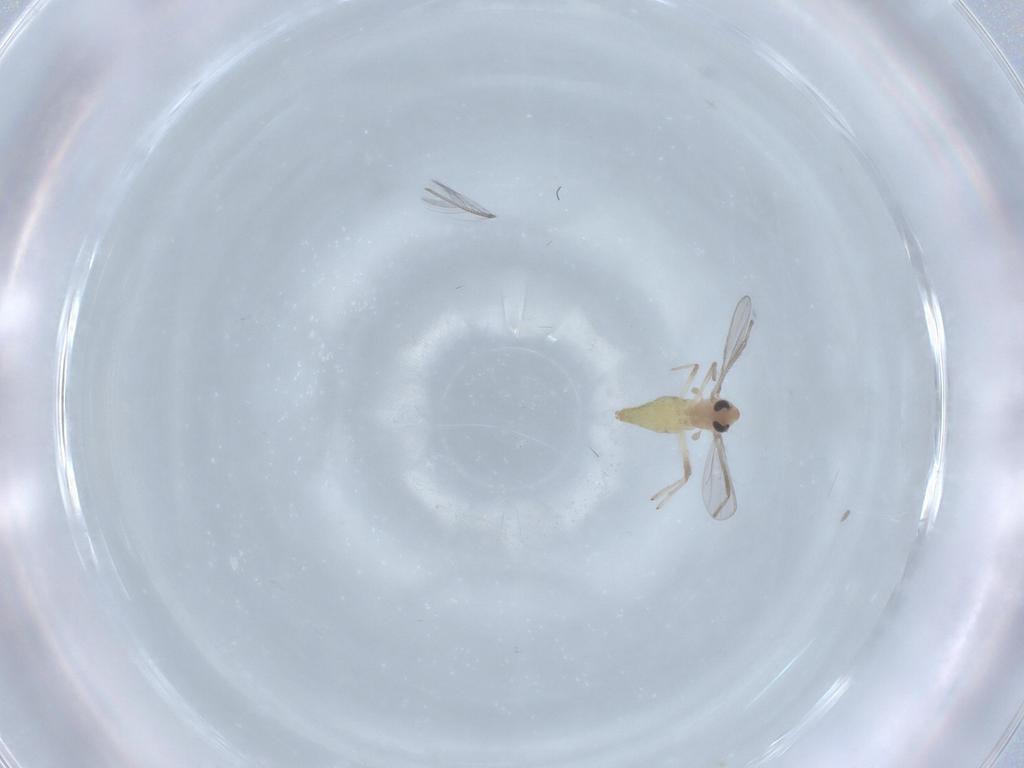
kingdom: Animalia
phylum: Arthropoda
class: Insecta
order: Diptera
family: Chironomidae
